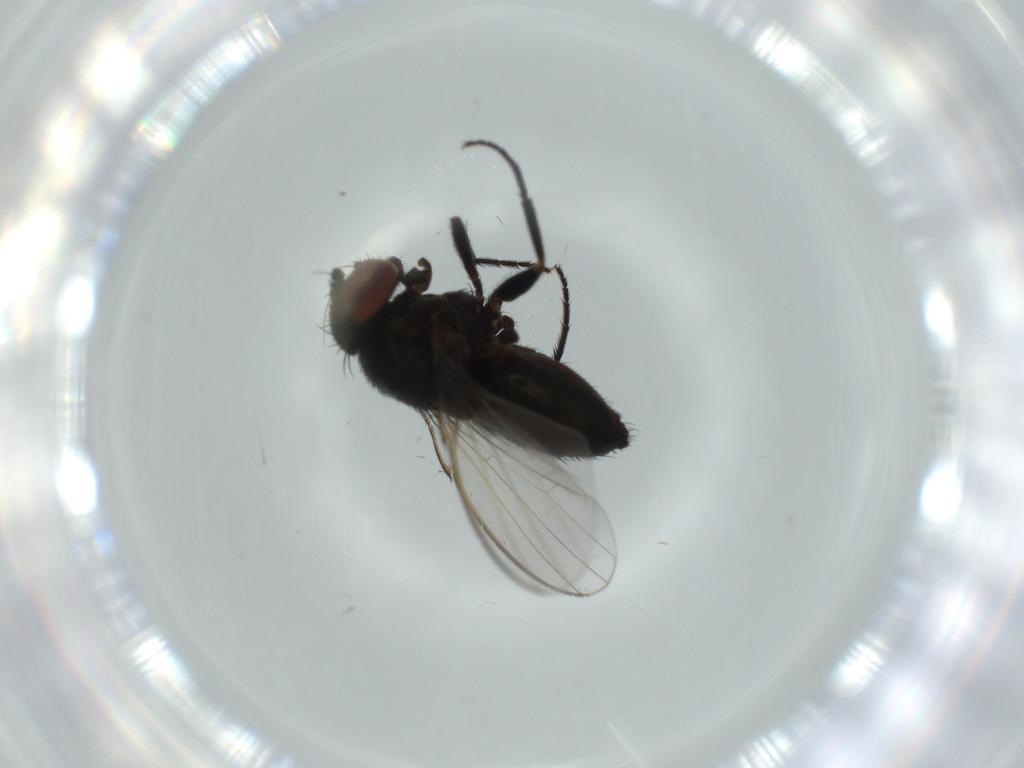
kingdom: Animalia
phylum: Arthropoda
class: Insecta
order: Diptera
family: Milichiidae
